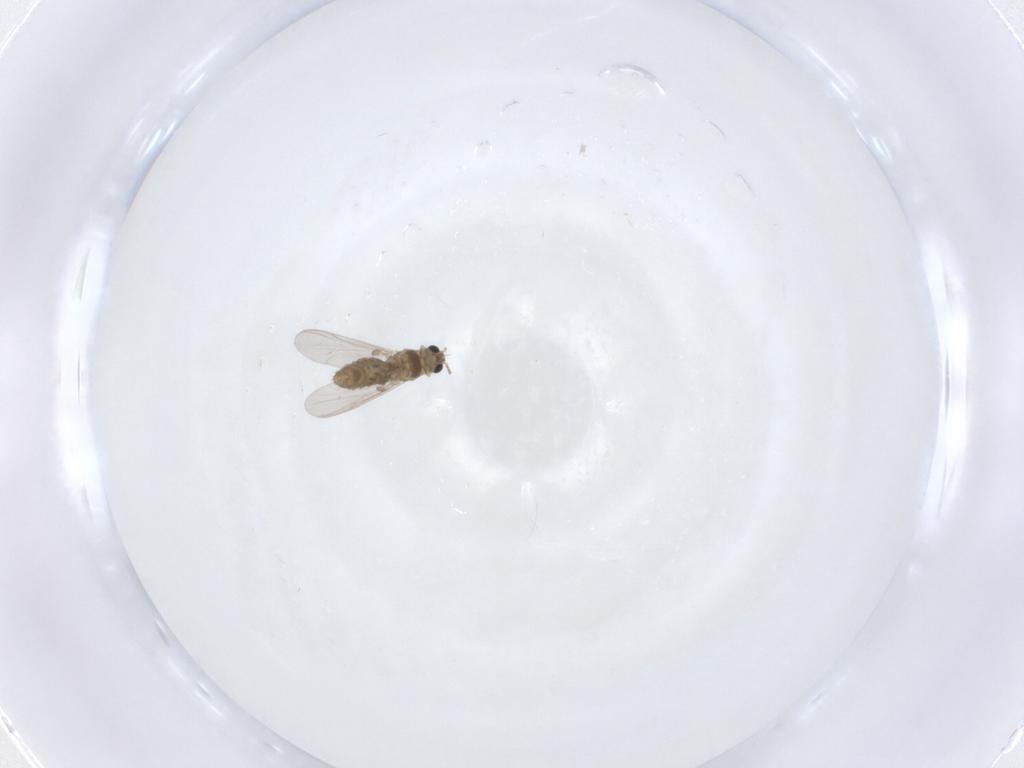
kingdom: Animalia
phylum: Arthropoda
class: Insecta
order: Diptera
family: Chironomidae
